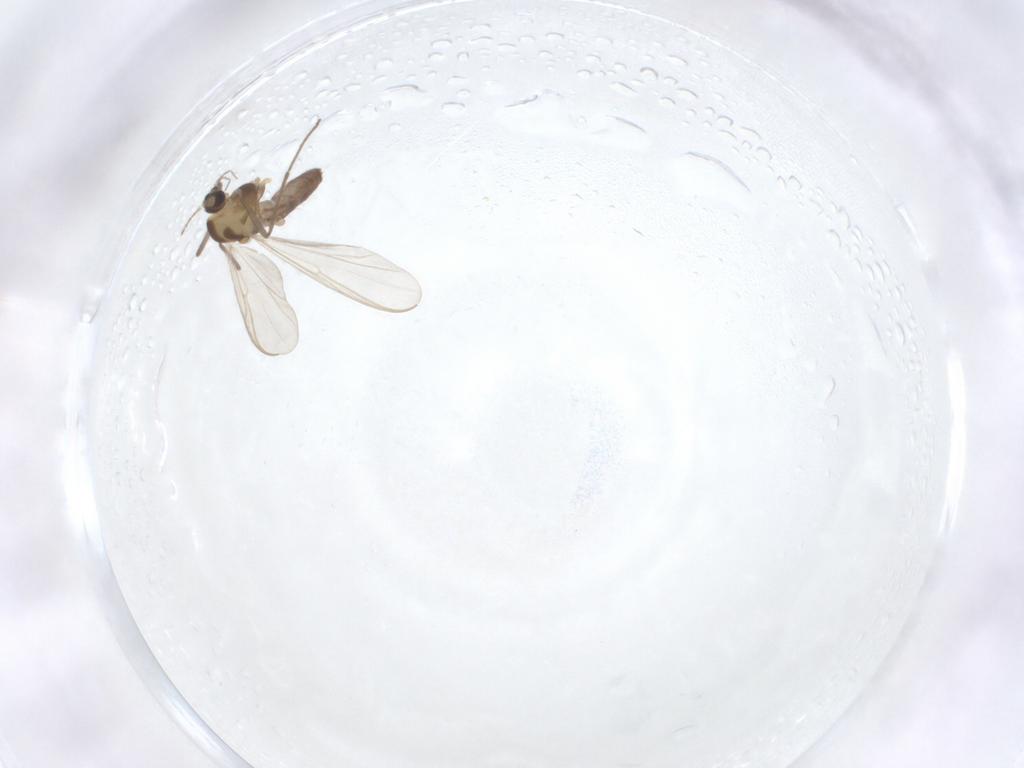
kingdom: Animalia
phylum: Arthropoda
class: Insecta
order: Diptera
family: Chironomidae
